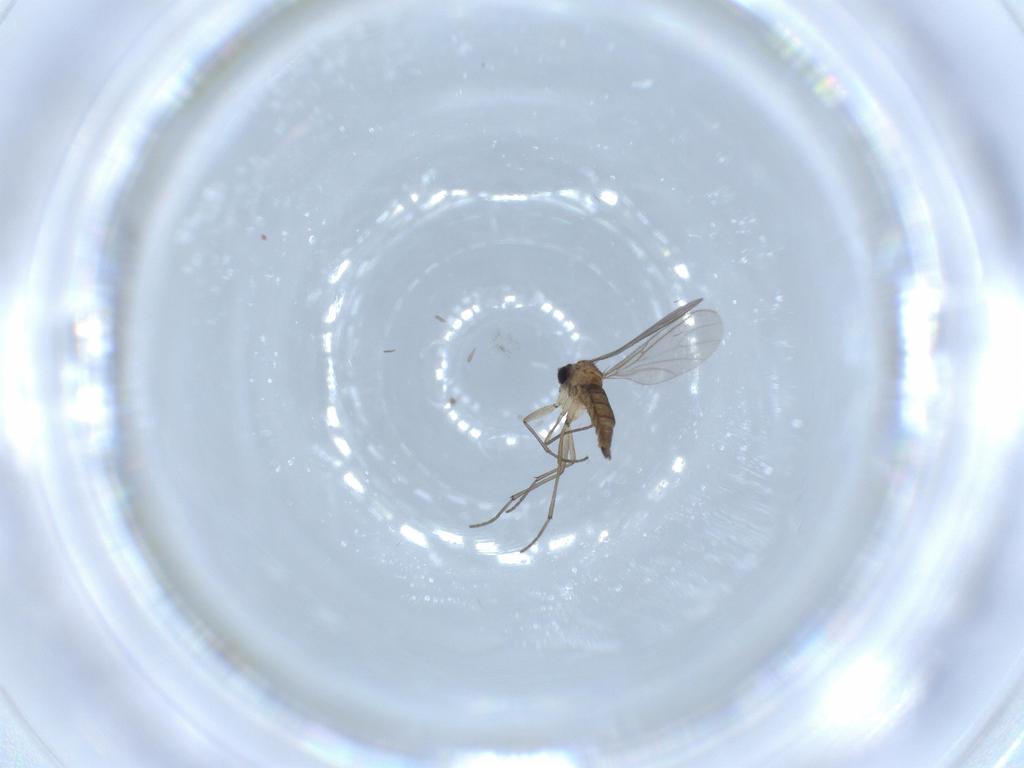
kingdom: Animalia
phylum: Arthropoda
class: Insecta
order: Diptera
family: Sciaridae
